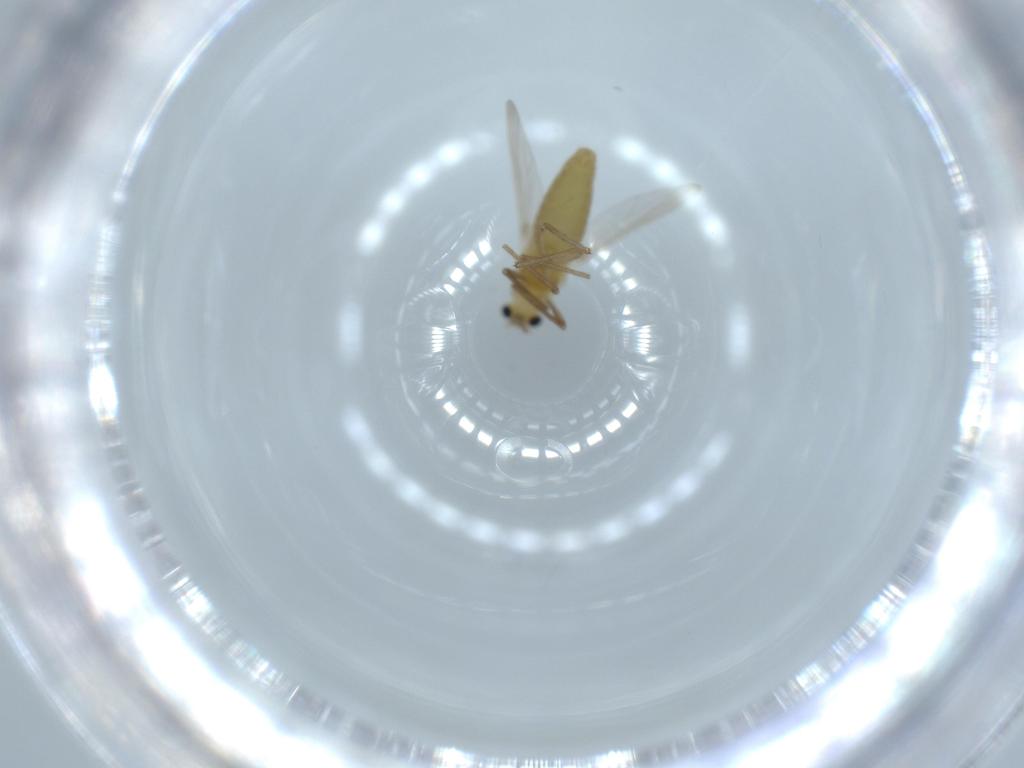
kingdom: Animalia
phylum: Arthropoda
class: Insecta
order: Diptera
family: Chironomidae
